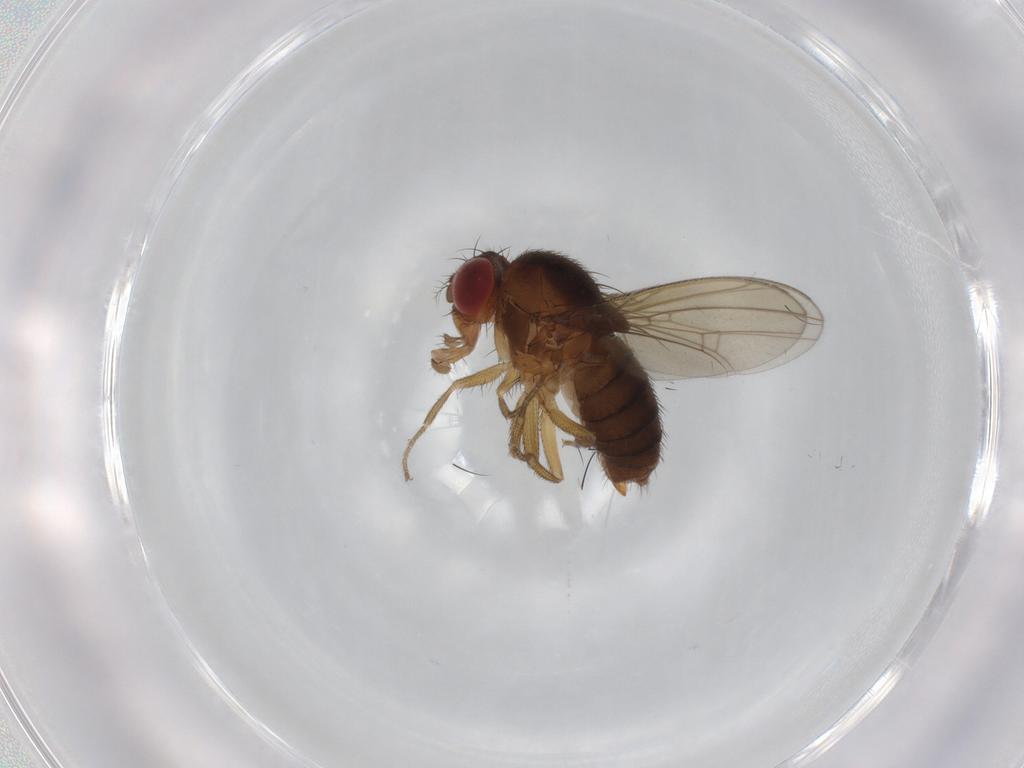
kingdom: Animalia
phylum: Arthropoda
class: Insecta
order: Diptera
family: Drosophilidae
